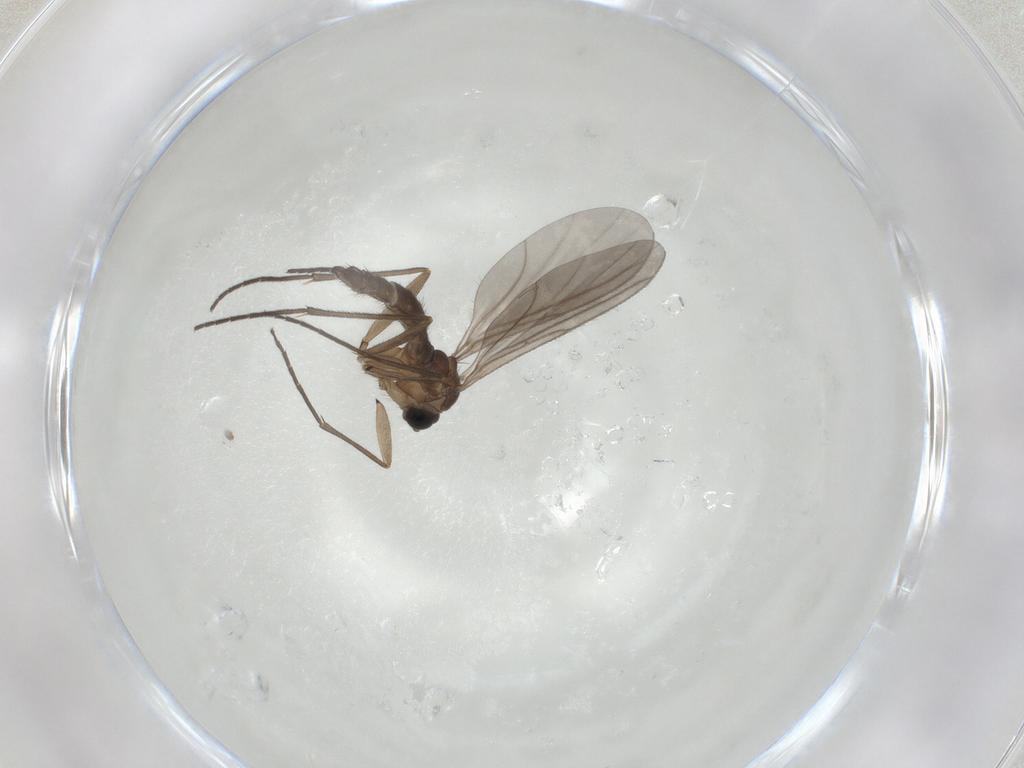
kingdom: Animalia
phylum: Arthropoda
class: Insecta
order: Diptera
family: Sciaridae
